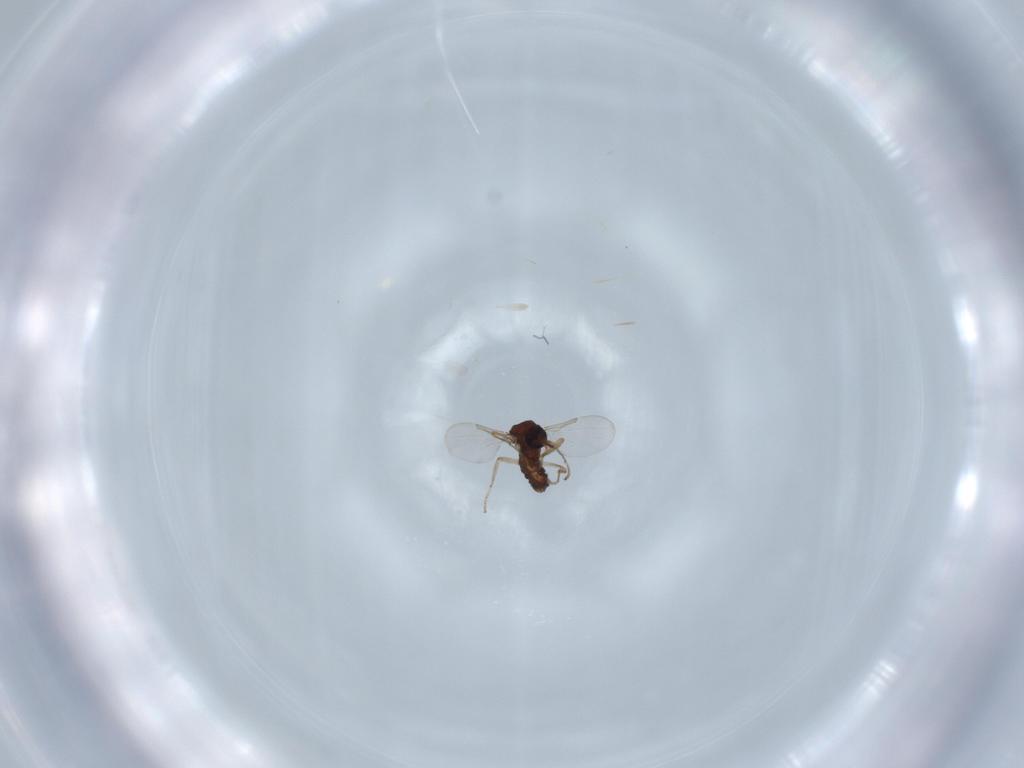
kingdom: Animalia
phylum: Arthropoda
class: Insecta
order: Diptera
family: Ceratopogonidae
